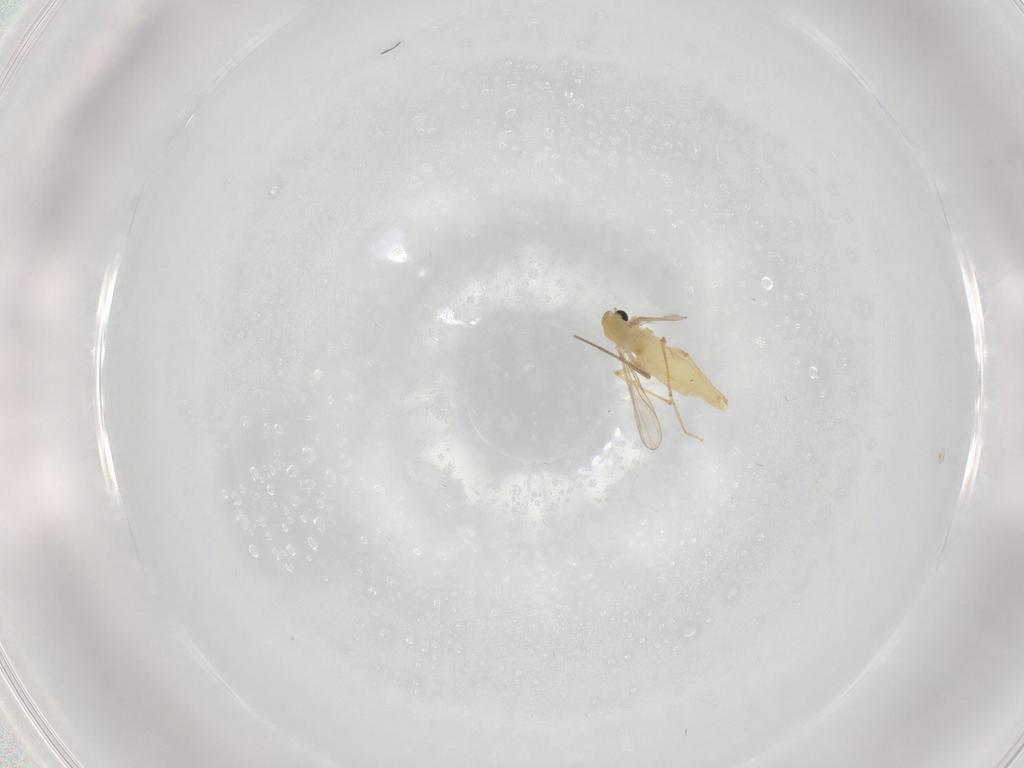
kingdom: Animalia
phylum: Arthropoda
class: Insecta
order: Diptera
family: Chironomidae
